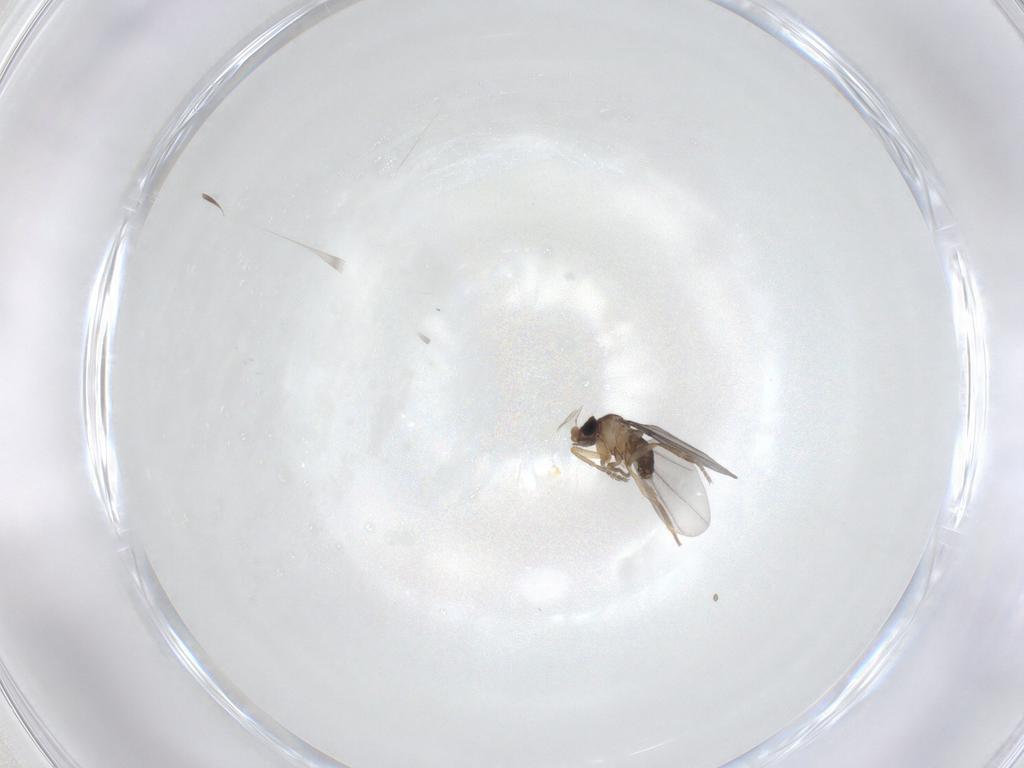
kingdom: Animalia
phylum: Arthropoda
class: Insecta
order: Diptera
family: Phoridae
